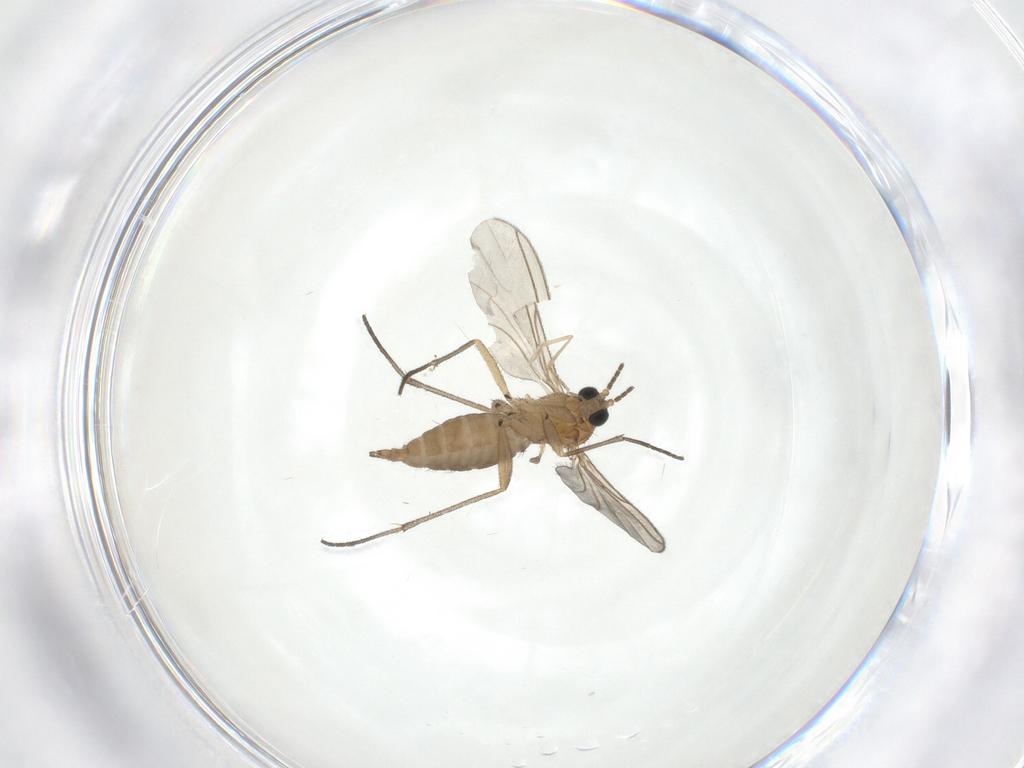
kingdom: Animalia
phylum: Arthropoda
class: Insecta
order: Diptera
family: Cecidomyiidae
